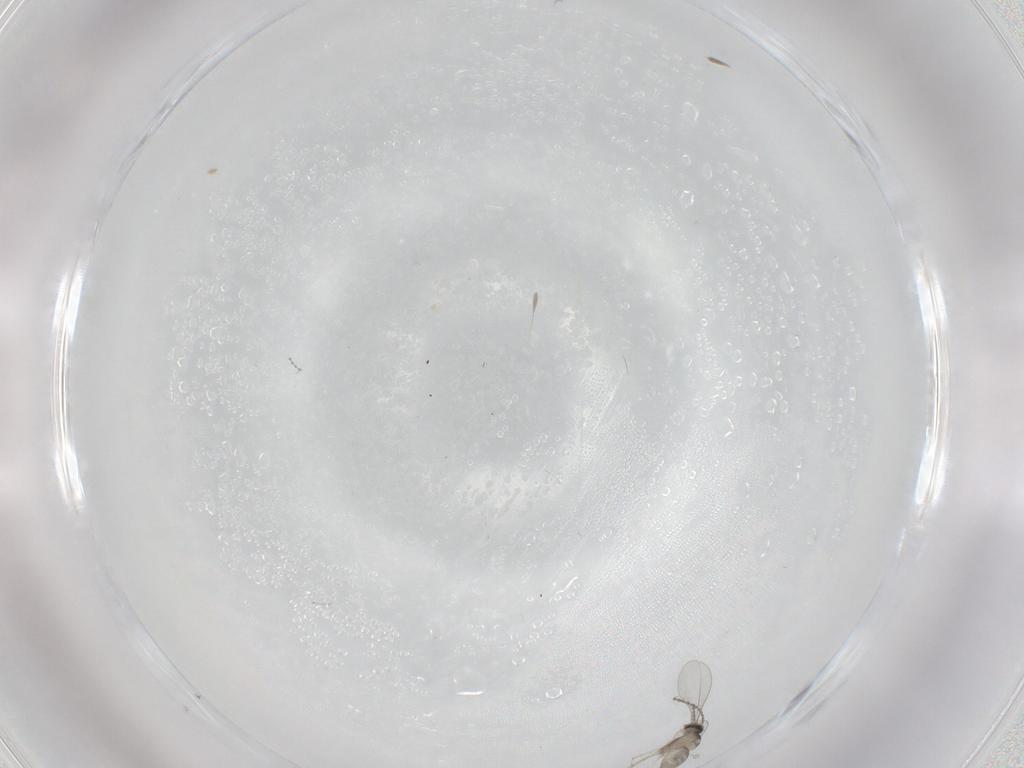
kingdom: Animalia
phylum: Arthropoda
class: Insecta
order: Diptera
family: Cecidomyiidae
